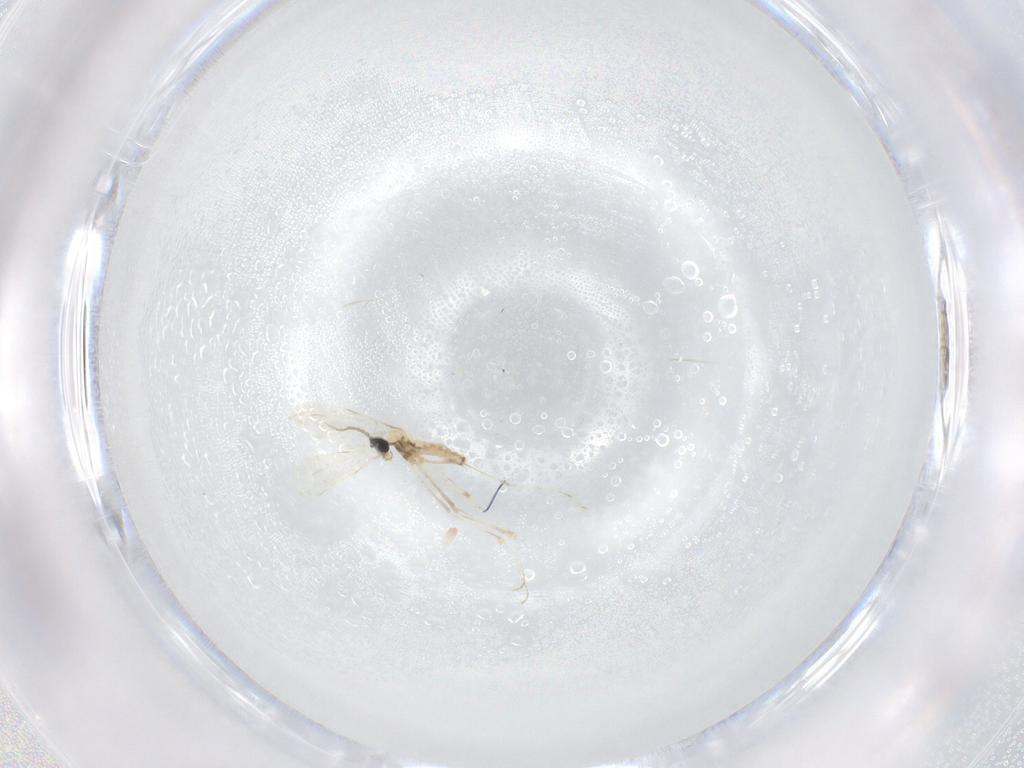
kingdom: Animalia
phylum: Arthropoda
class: Insecta
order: Diptera
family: Cecidomyiidae
